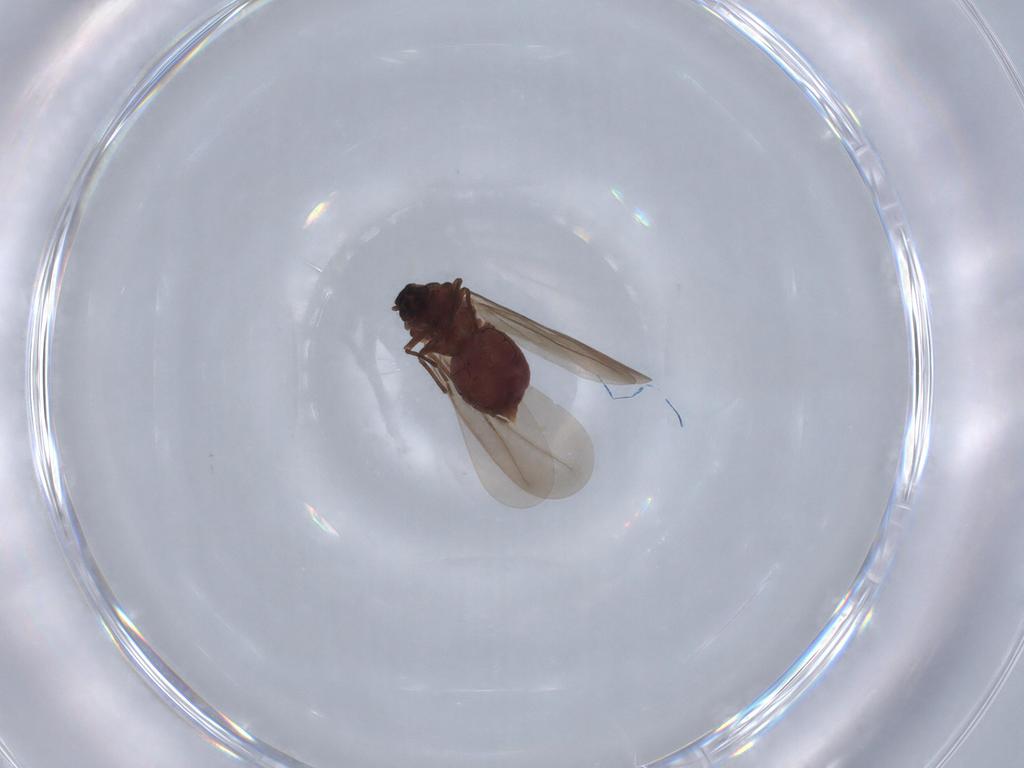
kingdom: Animalia
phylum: Arthropoda
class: Insecta
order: Hemiptera
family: Aleyrodidae
